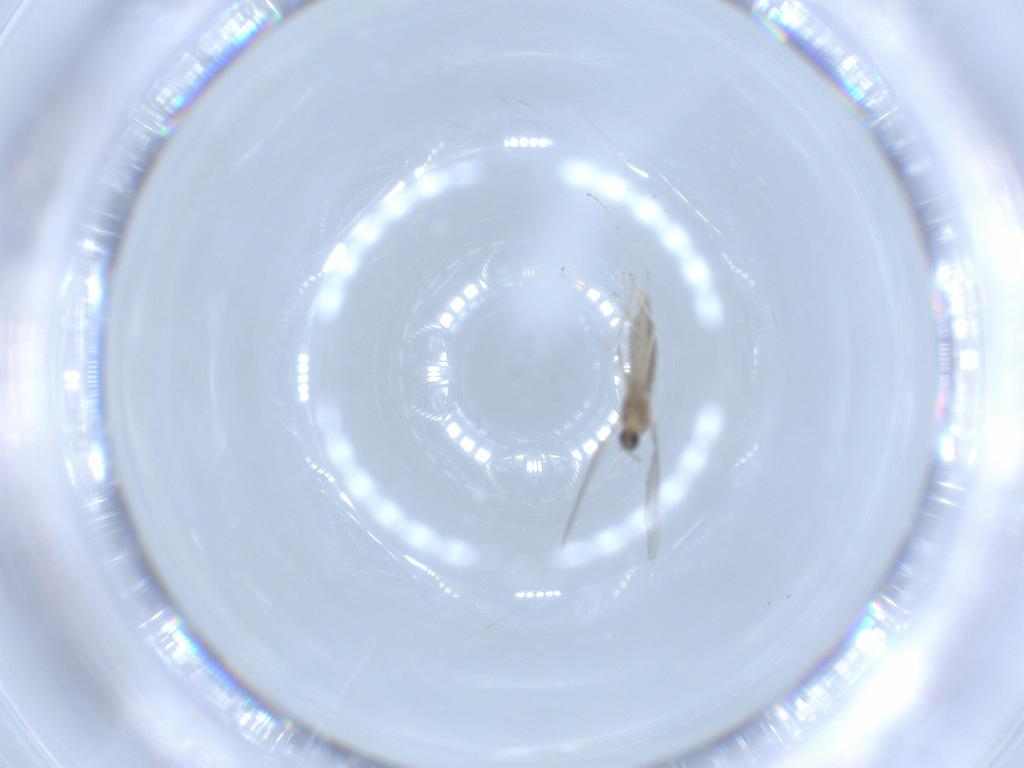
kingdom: Animalia
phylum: Arthropoda
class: Insecta
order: Diptera
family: Cecidomyiidae
